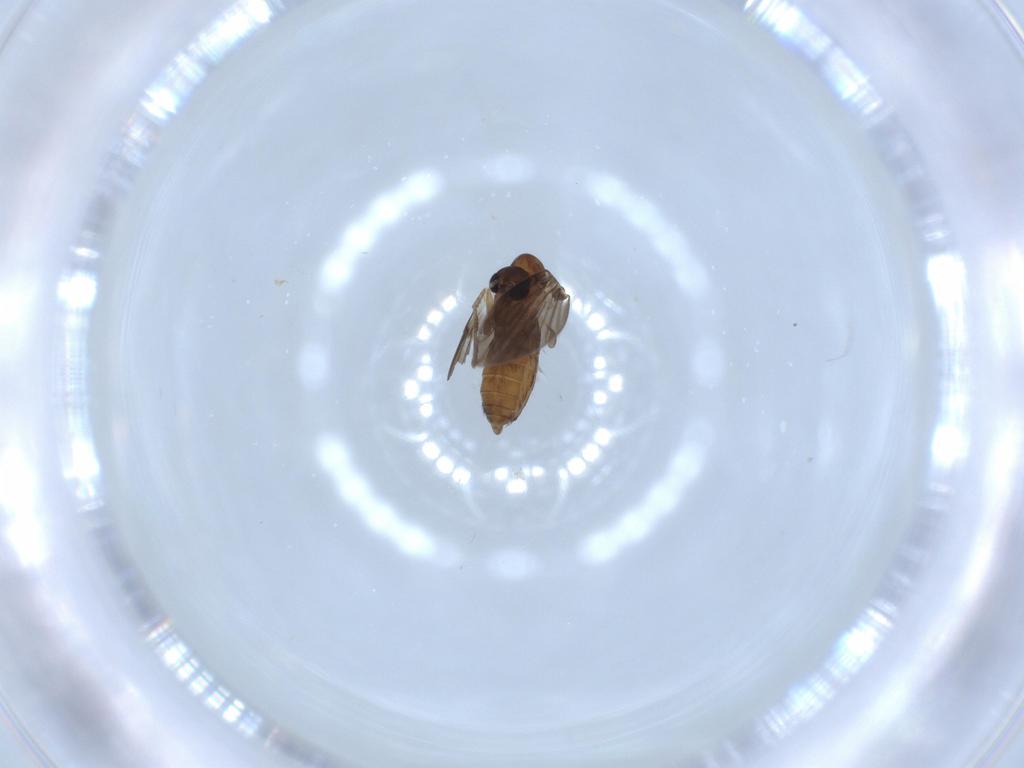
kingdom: Animalia
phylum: Arthropoda
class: Insecta
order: Diptera
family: Psychodidae
